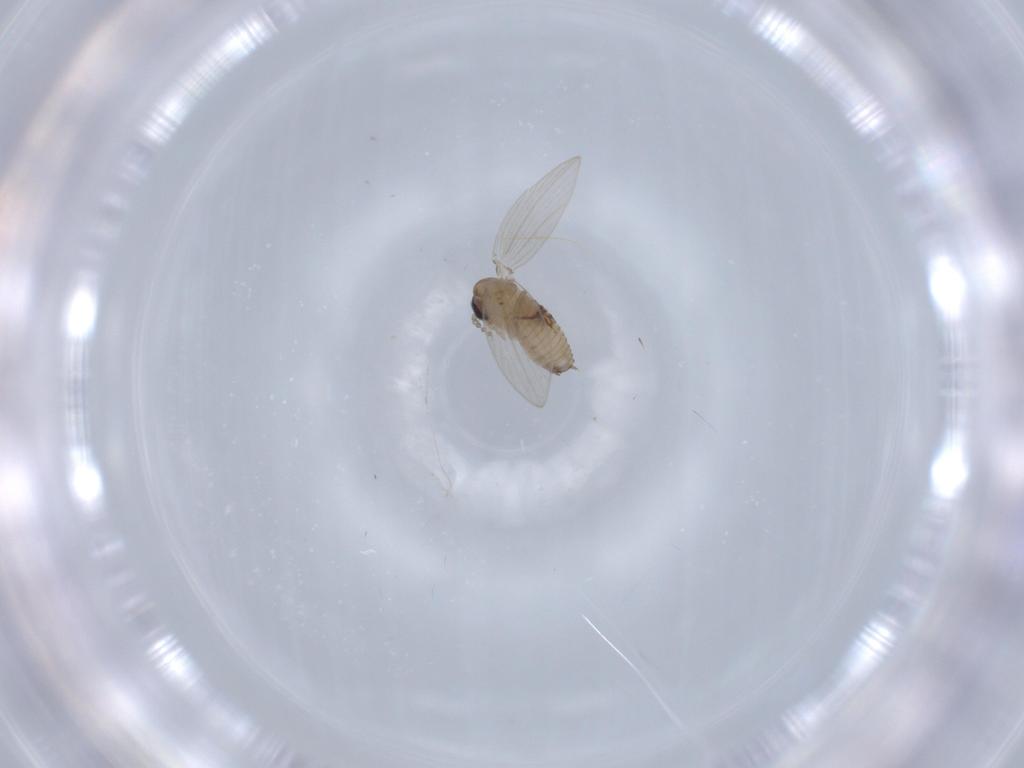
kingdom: Animalia
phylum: Arthropoda
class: Insecta
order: Diptera
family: Psychodidae
